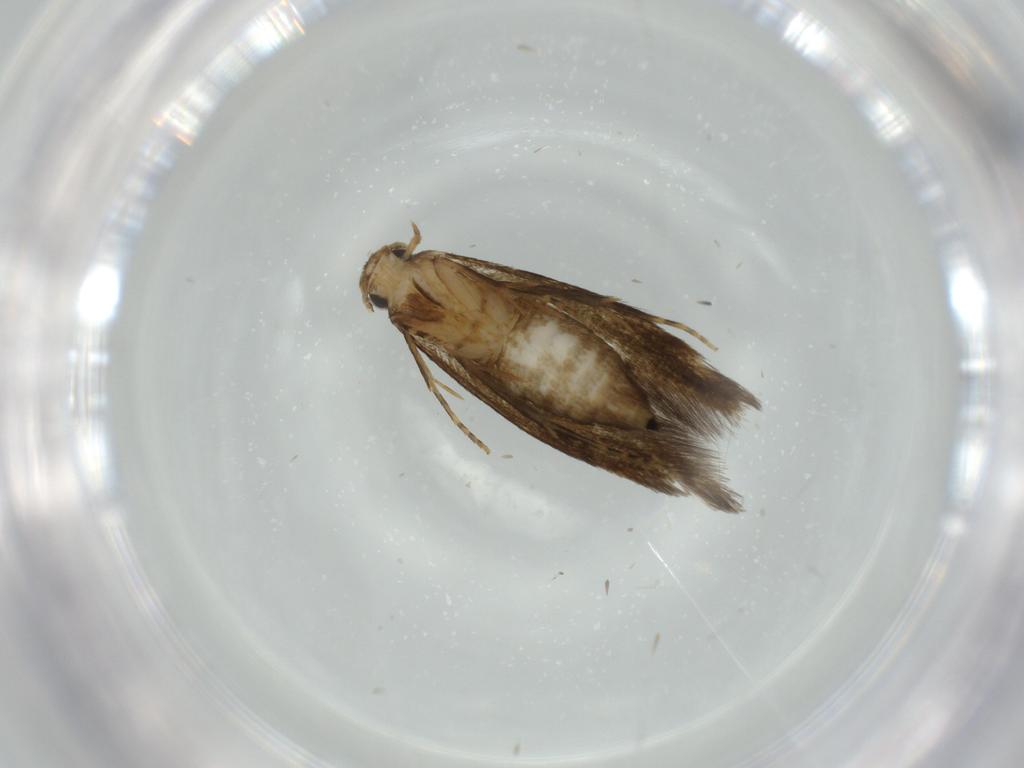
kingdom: Animalia
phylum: Arthropoda
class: Insecta
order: Lepidoptera
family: Tineidae
